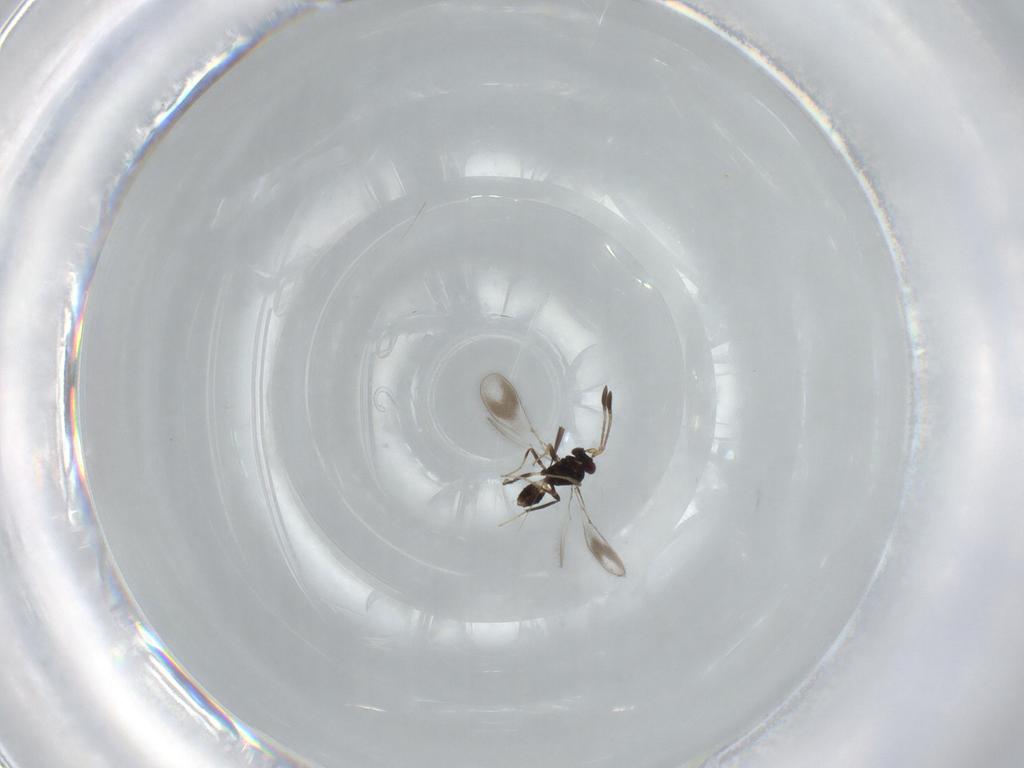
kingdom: Animalia
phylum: Arthropoda
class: Insecta
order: Hymenoptera
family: Mymaridae
